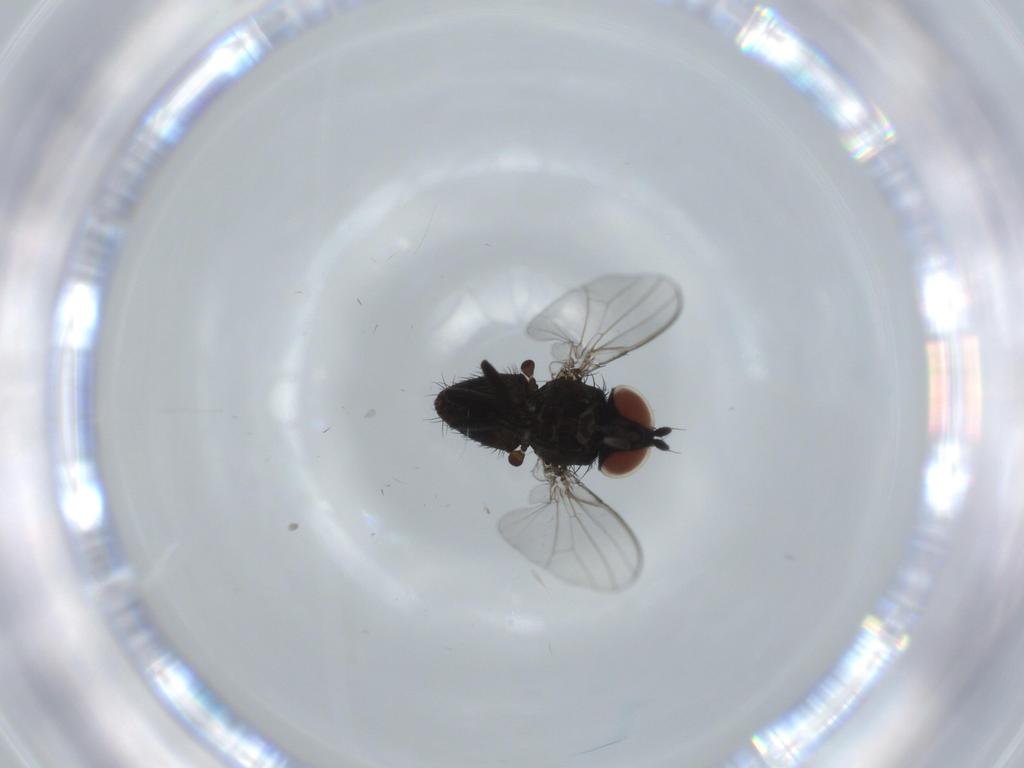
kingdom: Animalia
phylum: Arthropoda
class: Insecta
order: Diptera
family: Milichiidae
